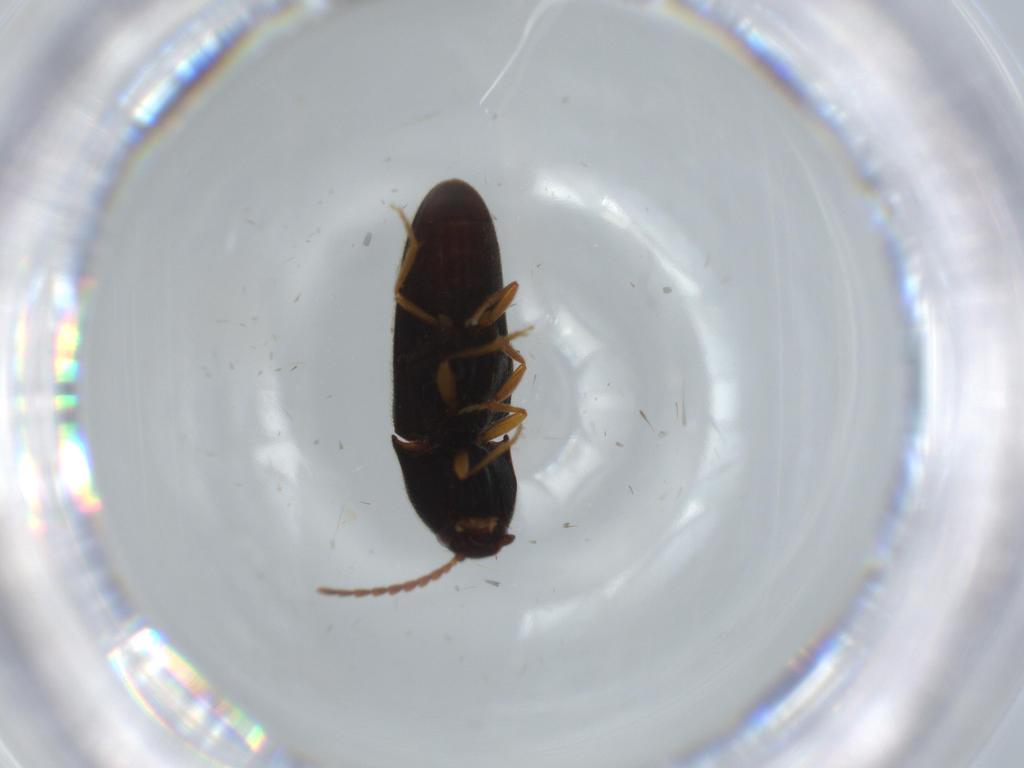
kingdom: Animalia
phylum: Arthropoda
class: Insecta
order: Coleoptera
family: Elateridae
